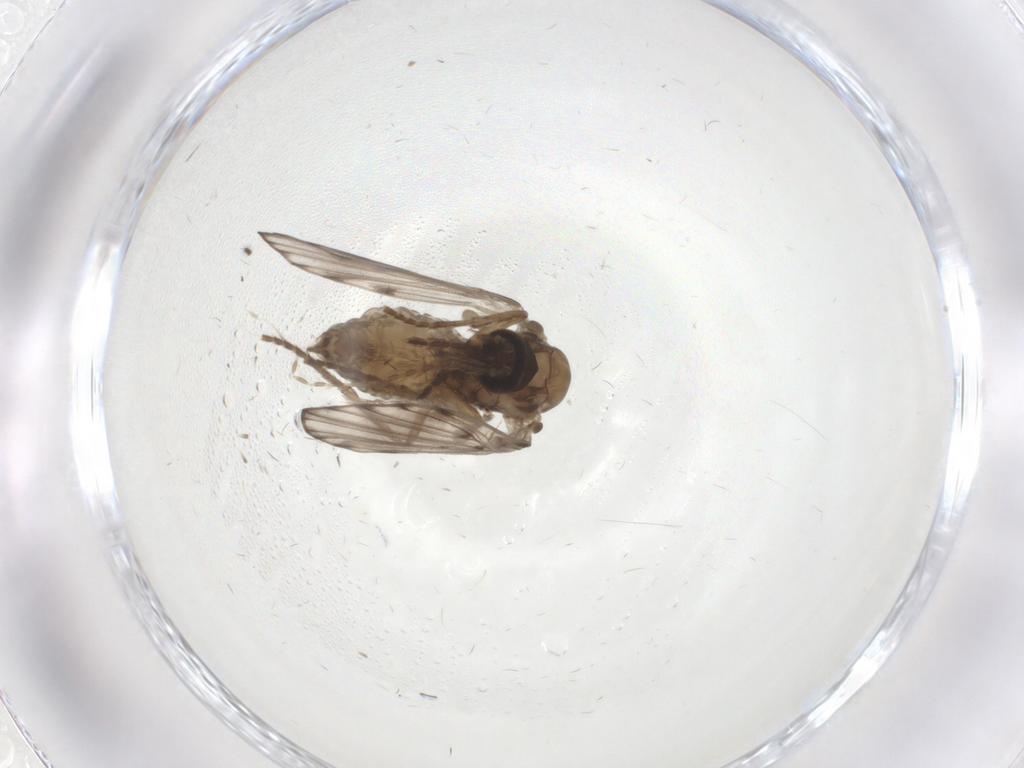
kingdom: Animalia
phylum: Arthropoda
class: Insecta
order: Diptera
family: Psychodidae
